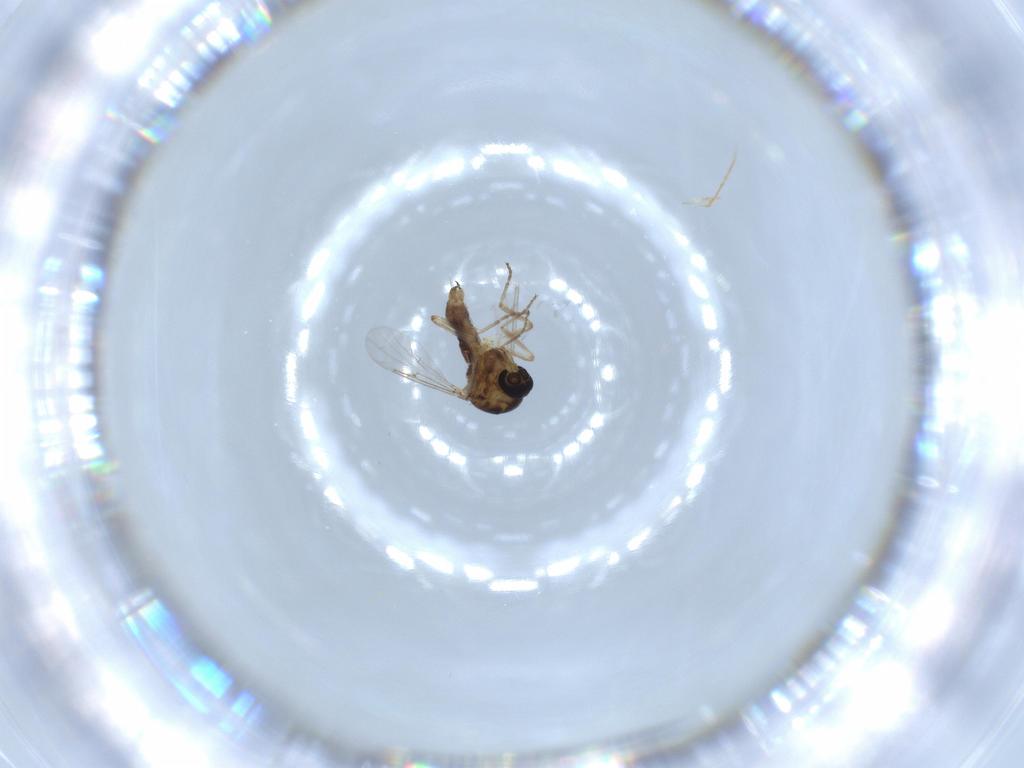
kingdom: Animalia
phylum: Arthropoda
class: Insecta
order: Diptera
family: Ceratopogonidae
